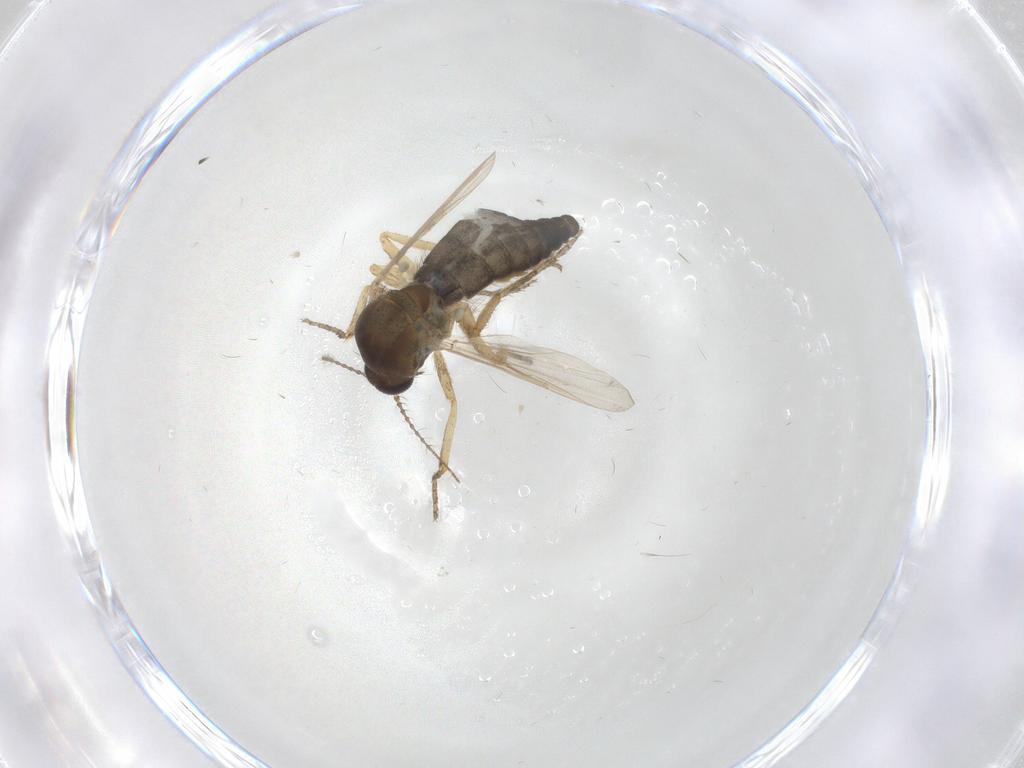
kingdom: Animalia
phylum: Arthropoda
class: Insecta
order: Diptera
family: Ceratopogonidae
